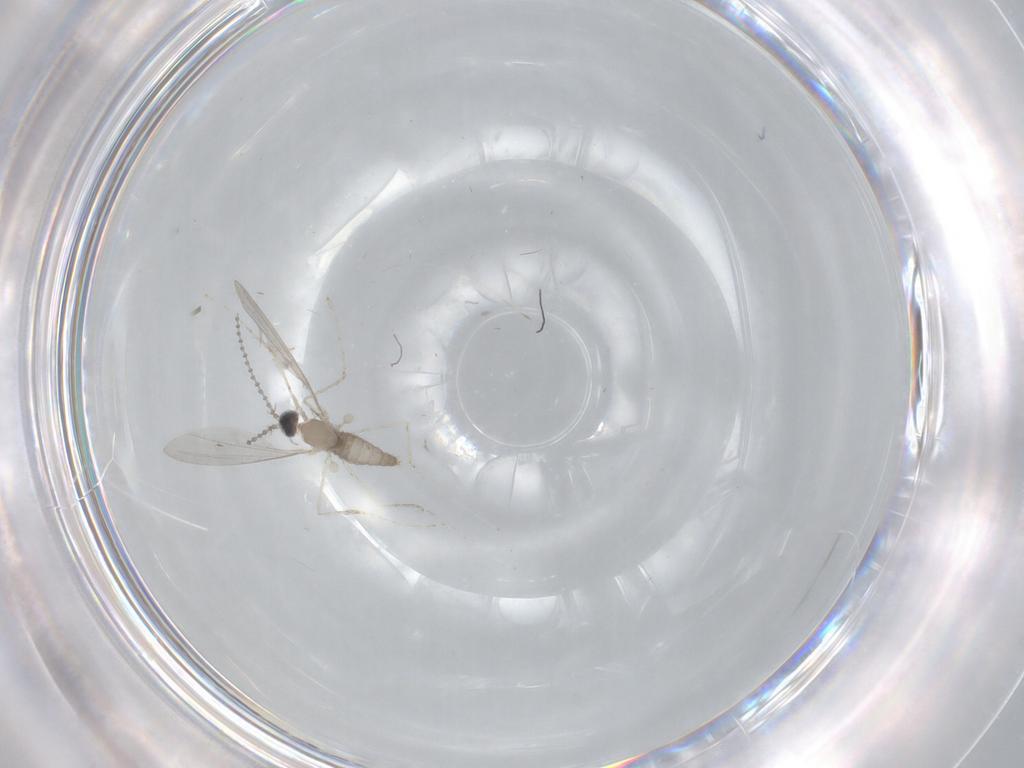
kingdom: Animalia
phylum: Arthropoda
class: Insecta
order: Diptera
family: Cecidomyiidae
